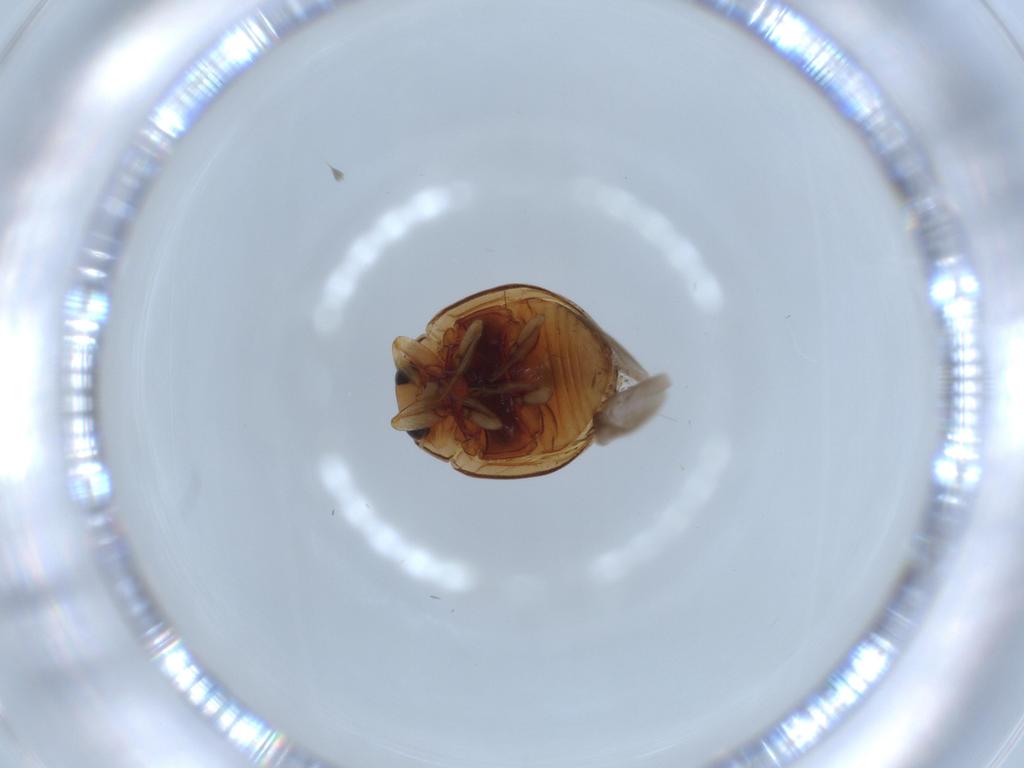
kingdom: Animalia
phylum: Arthropoda
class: Insecta
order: Coleoptera
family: Coccinellidae
